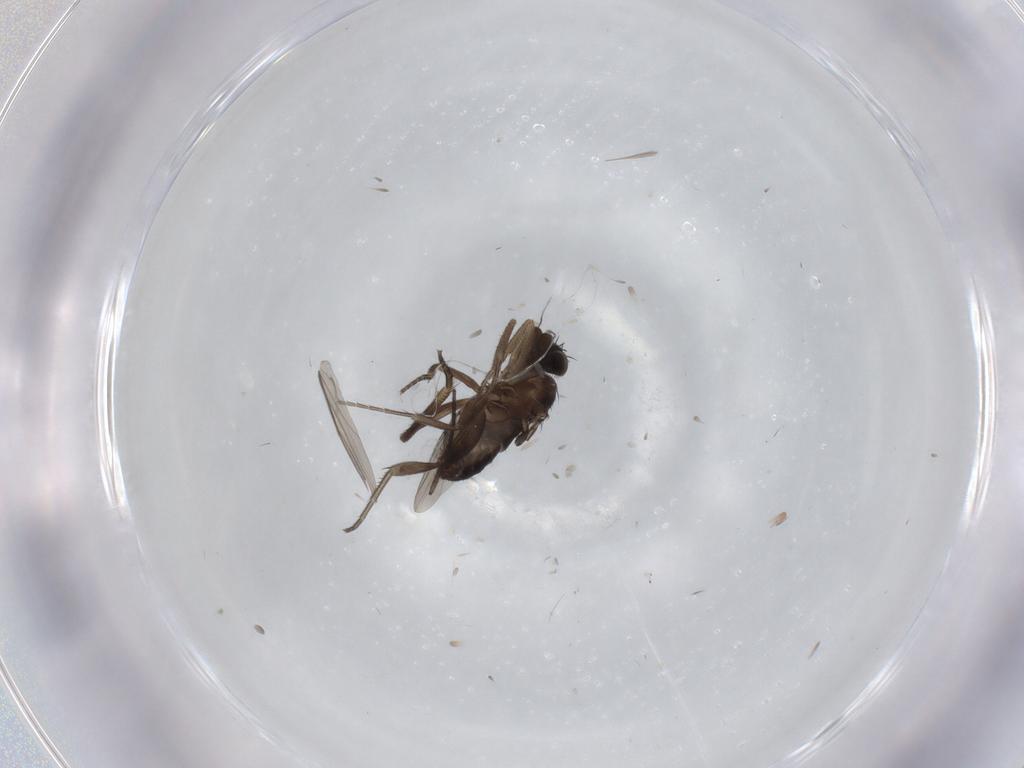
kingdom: Animalia
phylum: Arthropoda
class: Insecta
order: Diptera
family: Phoridae
